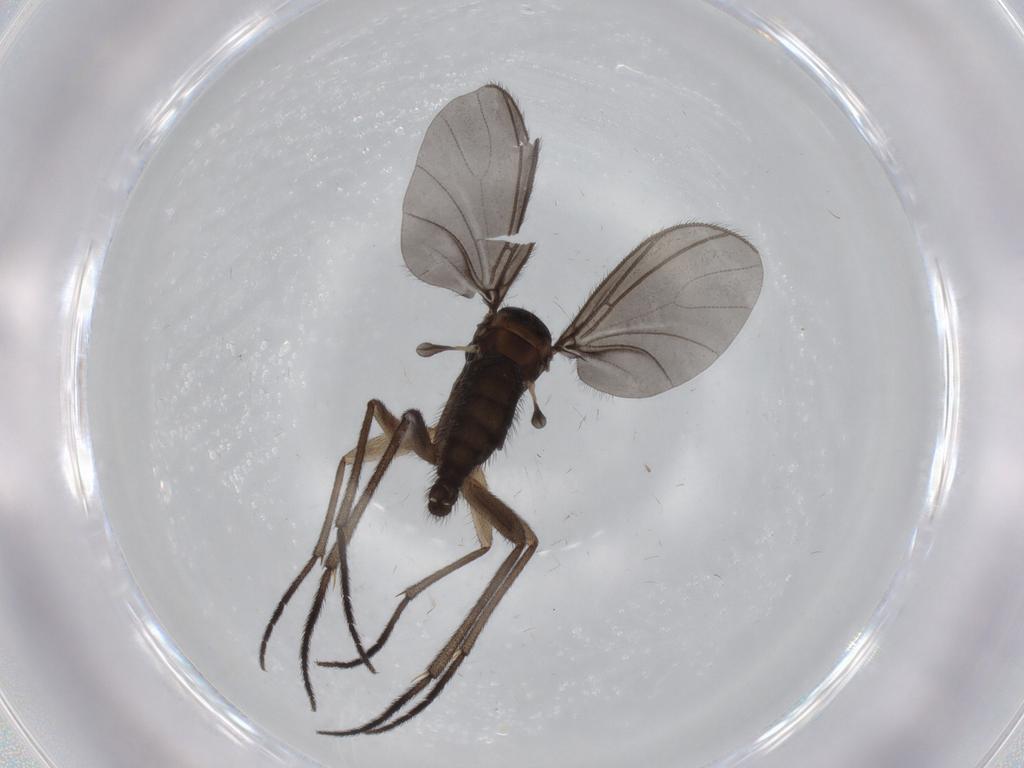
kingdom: Animalia
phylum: Arthropoda
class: Insecta
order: Diptera
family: Sciaridae
